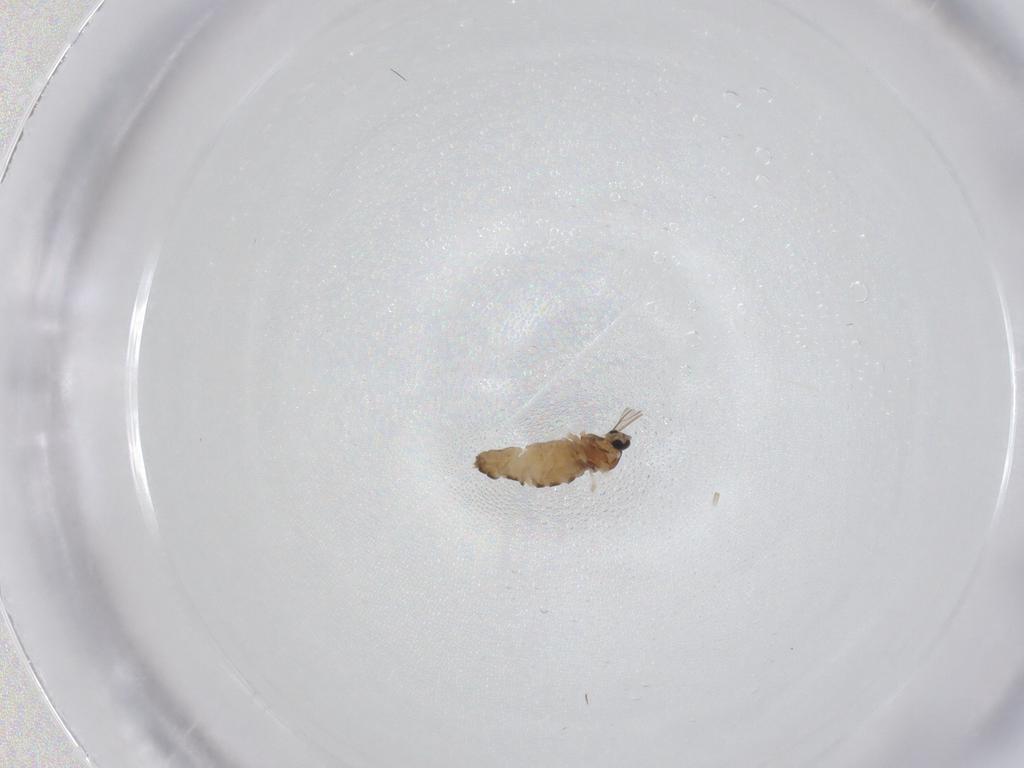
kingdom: Animalia
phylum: Arthropoda
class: Insecta
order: Diptera
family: Cecidomyiidae
